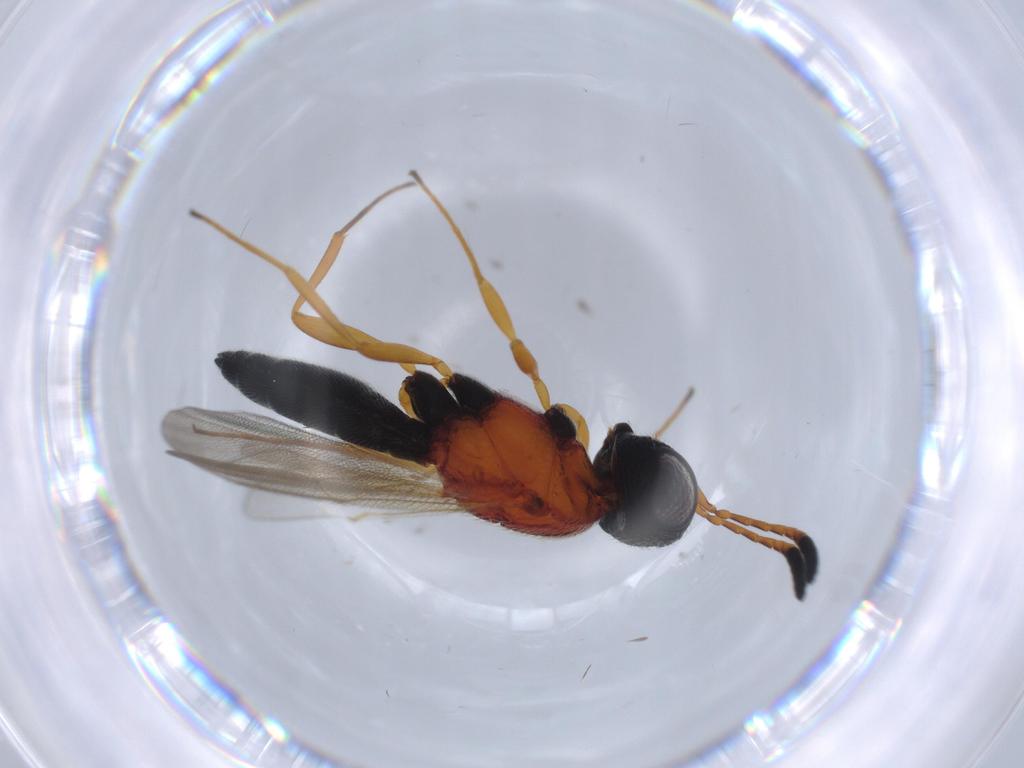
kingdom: Animalia
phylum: Arthropoda
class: Insecta
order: Hymenoptera
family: Scelionidae
